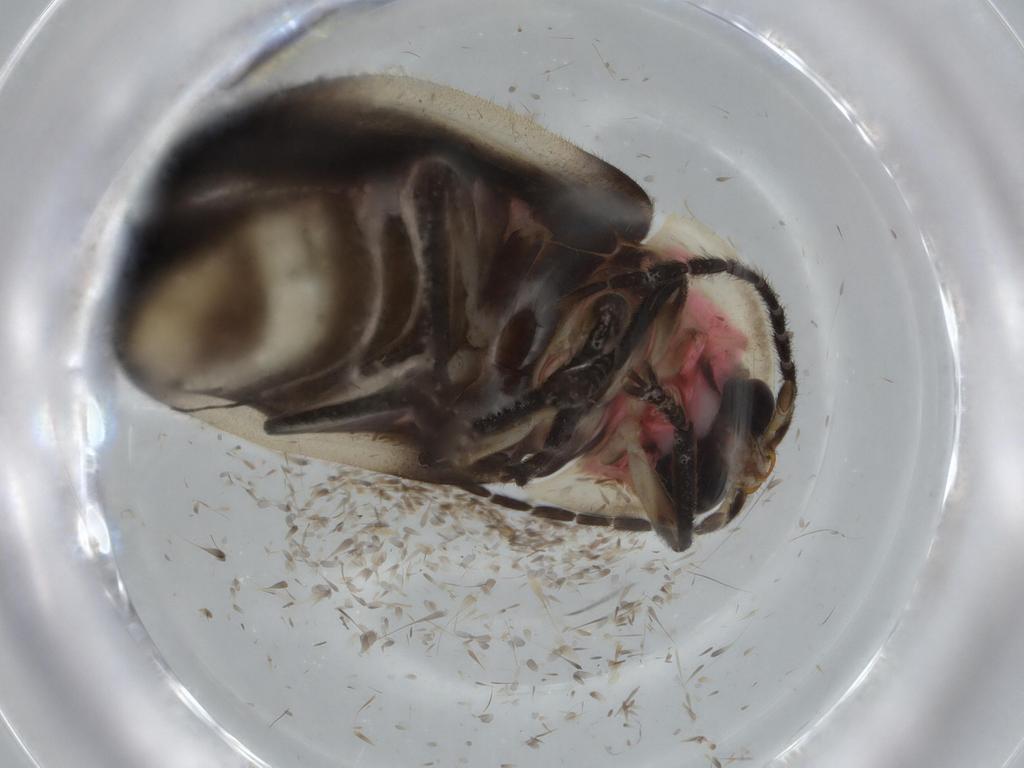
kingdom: Animalia
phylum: Arthropoda
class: Insecta
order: Coleoptera
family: Lampyridae
